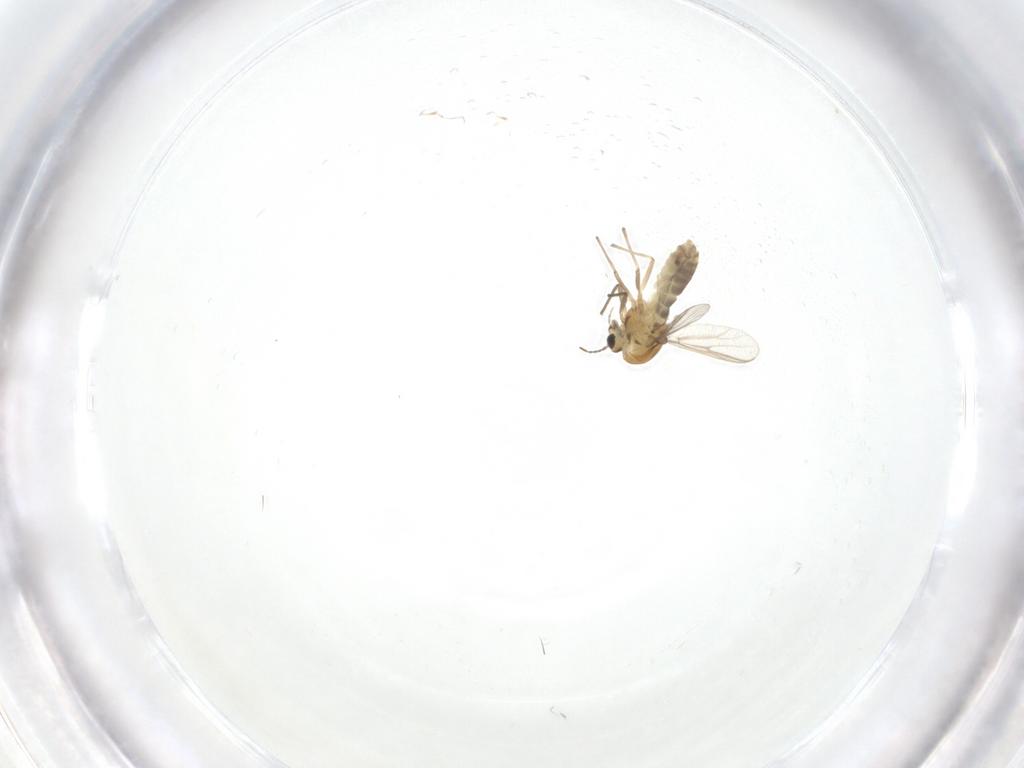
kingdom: Animalia
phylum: Arthropoda
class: Insecta
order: Diptera
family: Chironomidae
